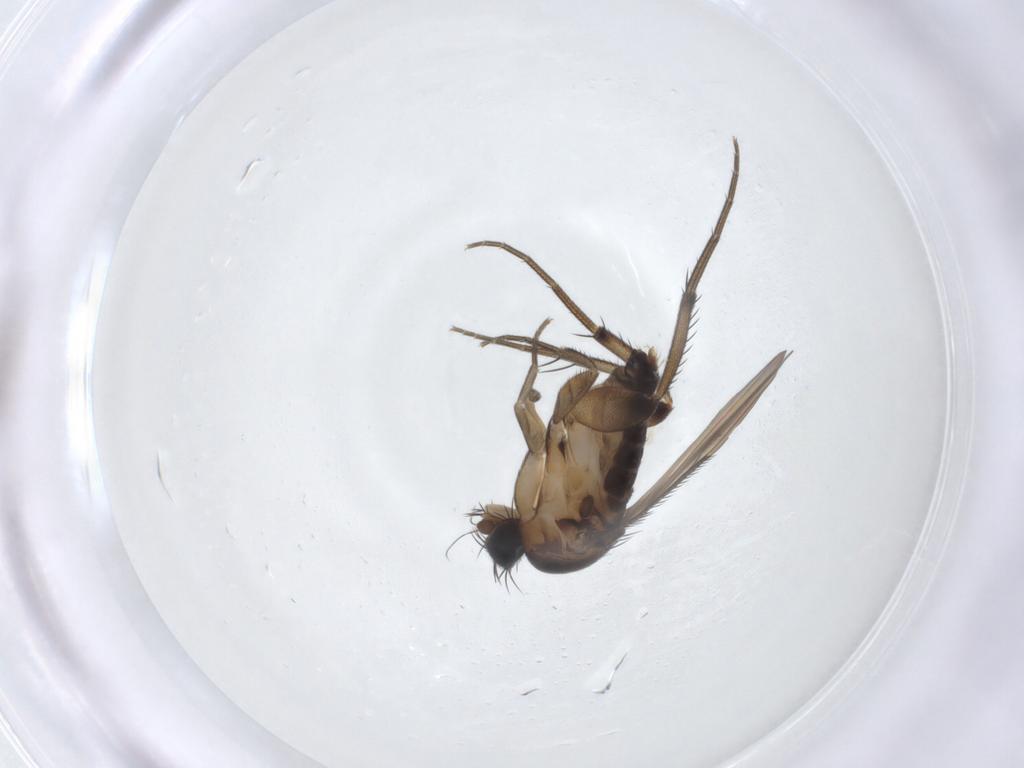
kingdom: Animalia
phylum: Arthropoda
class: Insecta
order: Diptera
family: Phoridae
